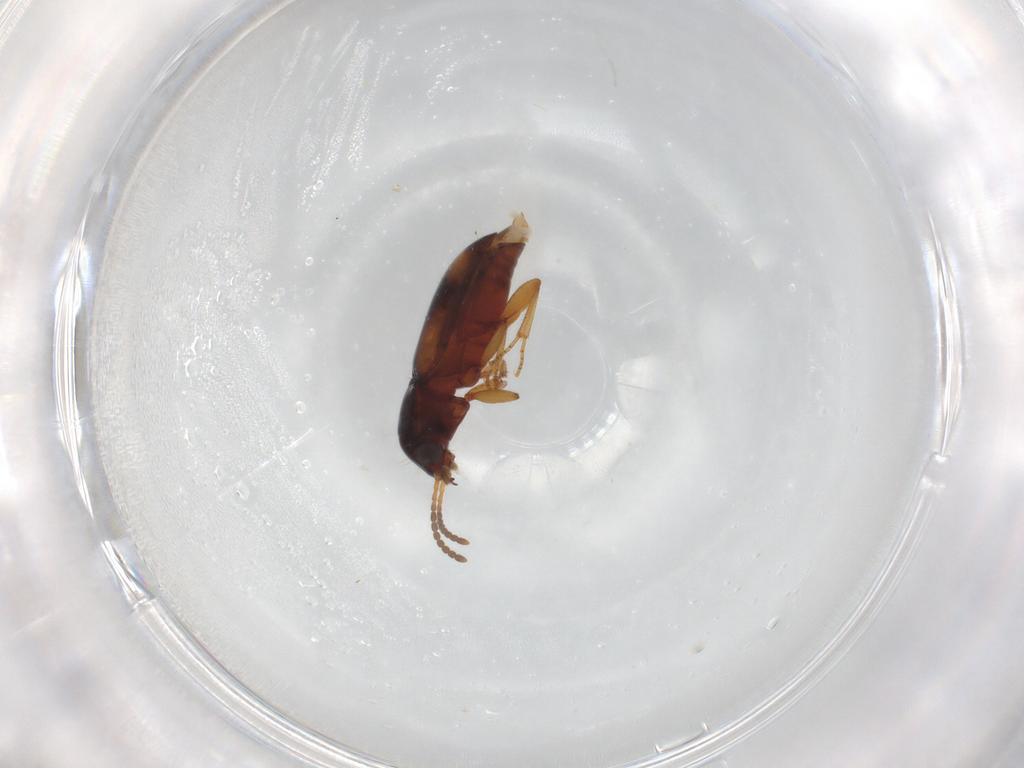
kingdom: Animalia
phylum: Arthropoda
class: Insecta
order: Coleoptera
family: Carabidae
